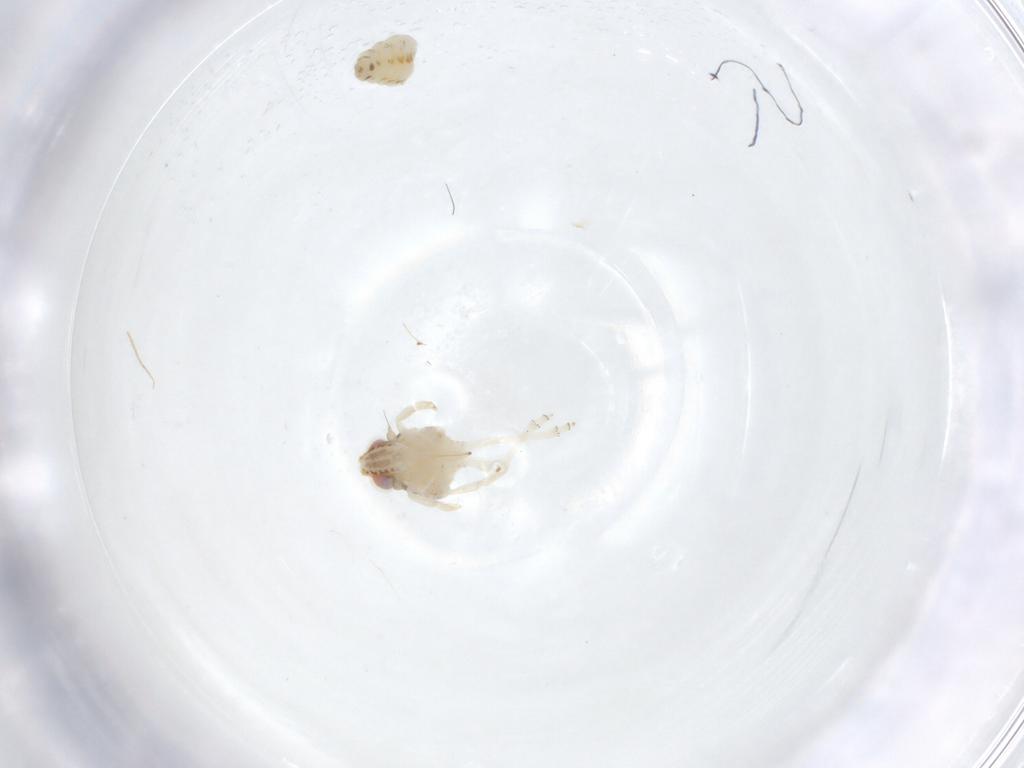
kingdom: Animalia
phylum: Arthropoda
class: Insecta
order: Hemiptera
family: Nogodinidae
